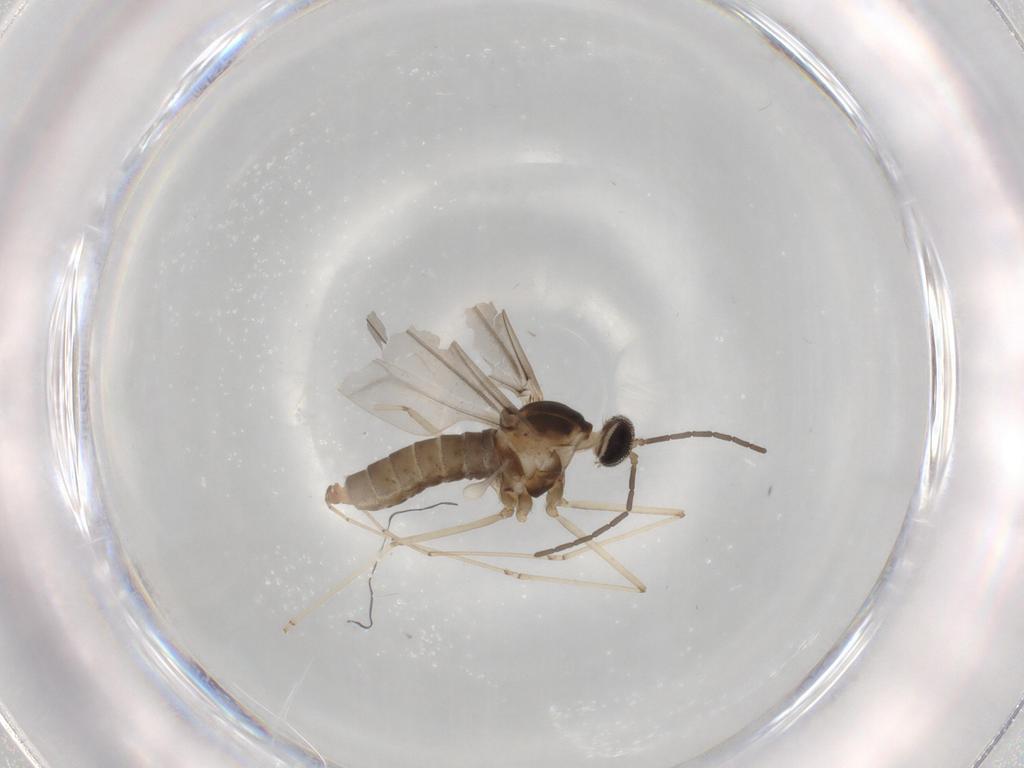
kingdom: Animalia
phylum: Arthropoda
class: Insecta
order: Diptera
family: Cecidomyiidae
